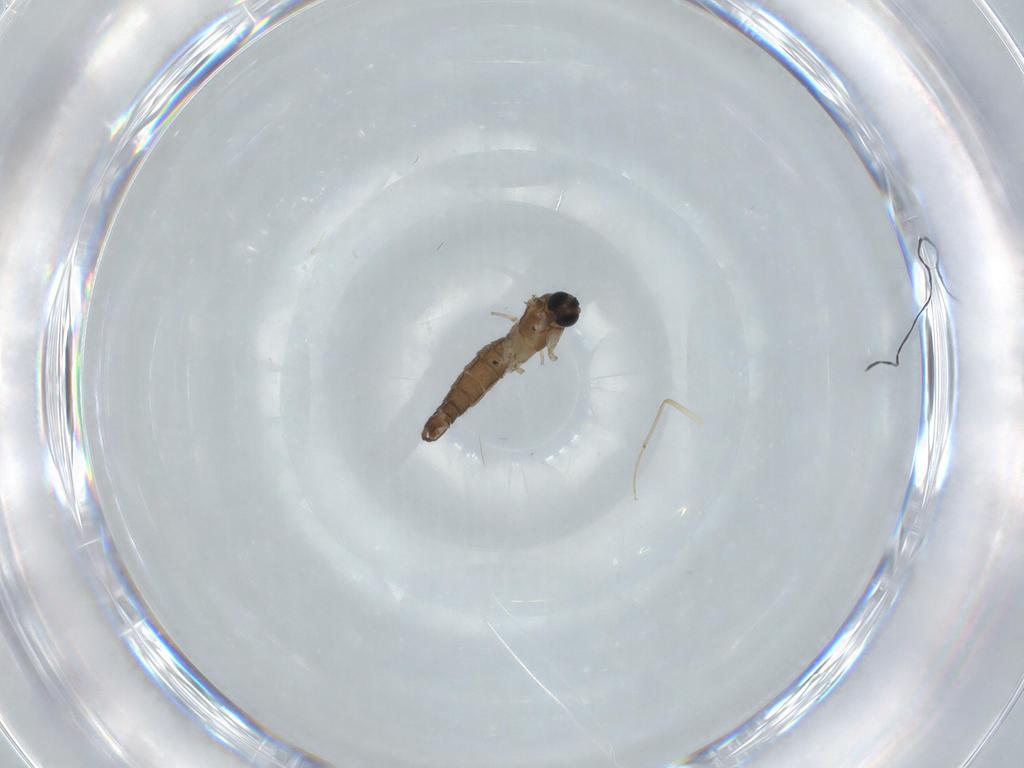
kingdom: Animalia
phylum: Arthropoda
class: Insecta
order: Diptera
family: Sciaridae
